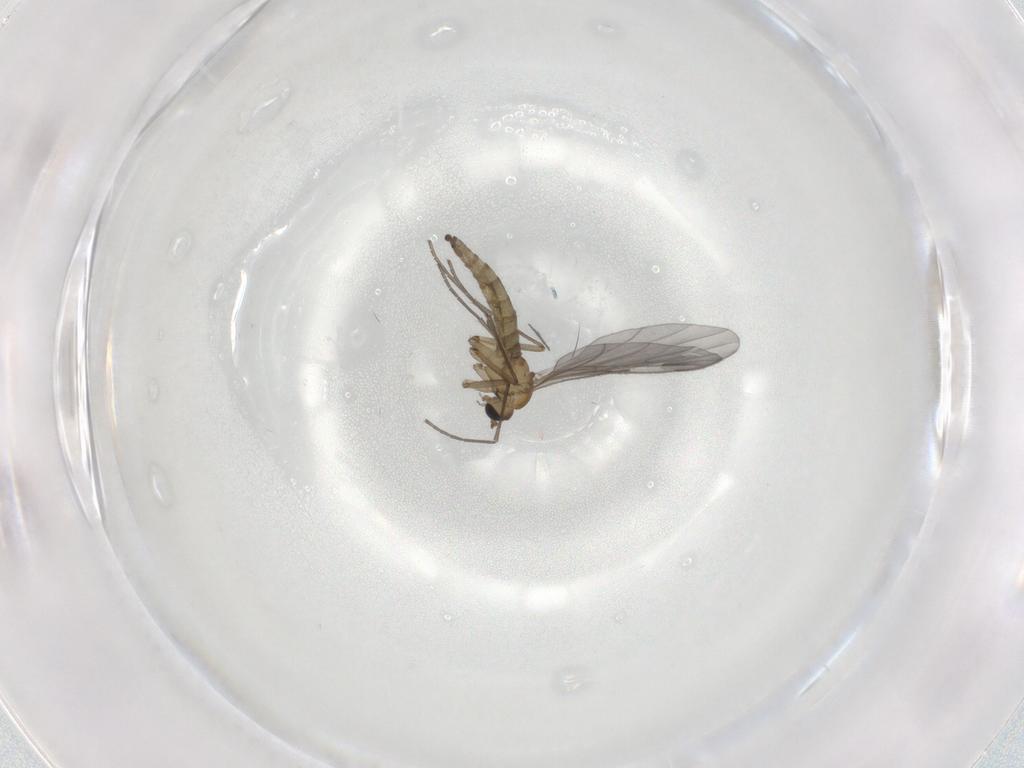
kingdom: Animalia
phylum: Arthropoda
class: Insecta
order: Diptera
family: Sciaridae
